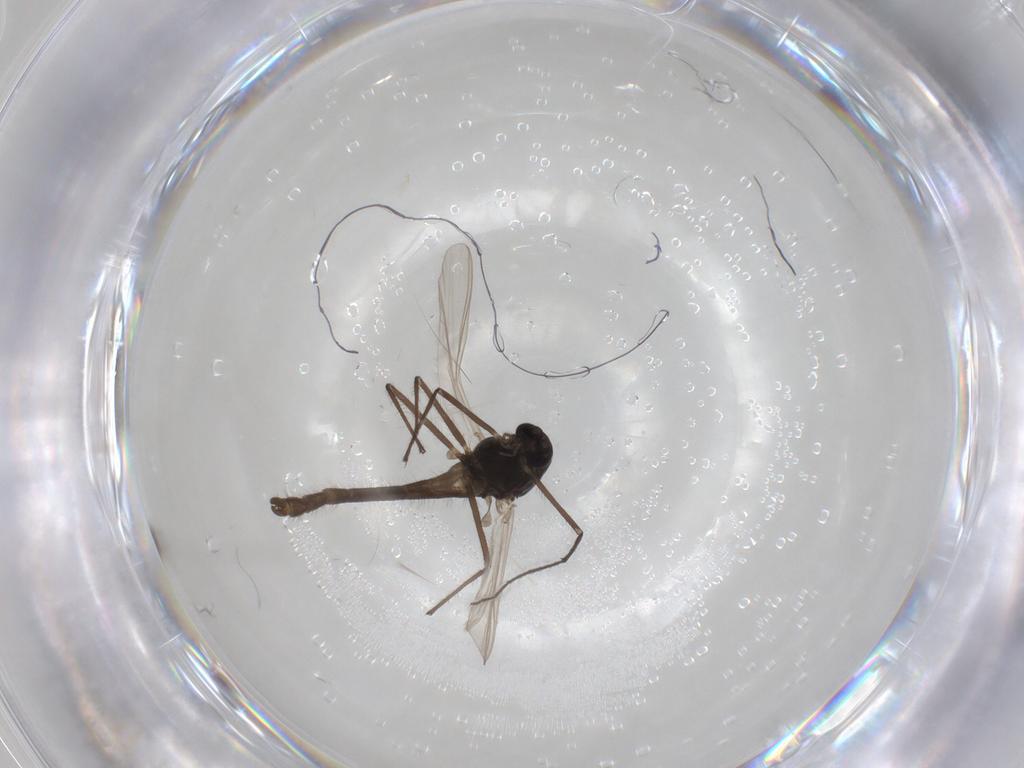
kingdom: Animalia
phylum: Arthropoda
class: Insecta
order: Diptera
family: Chironomidae
